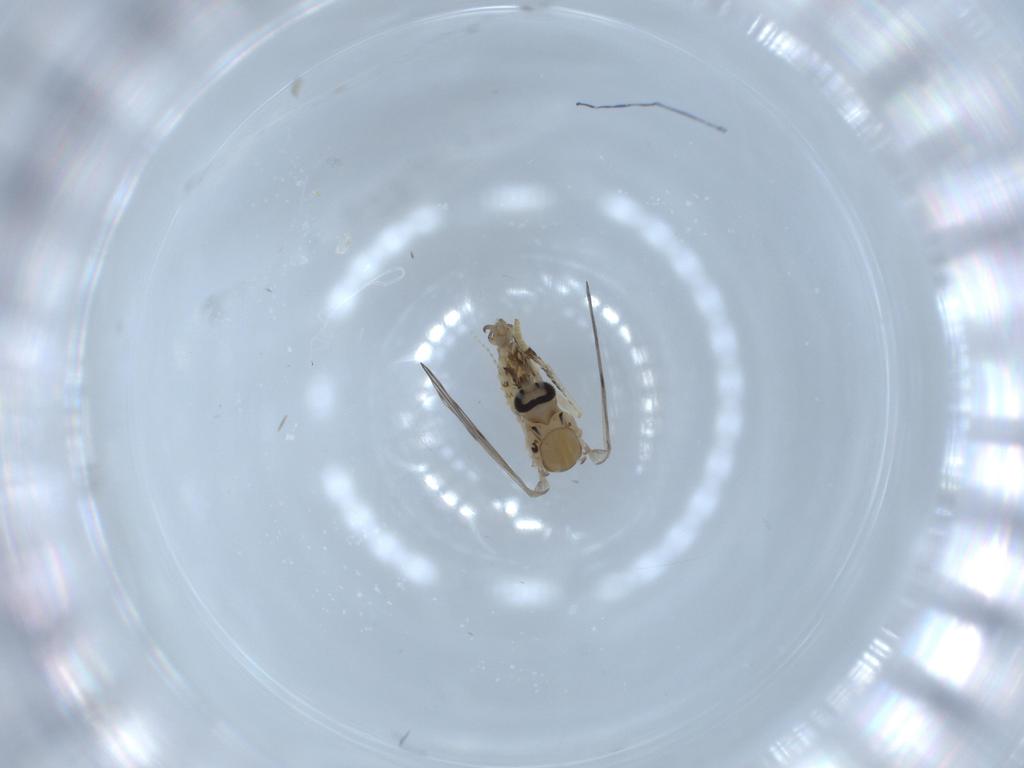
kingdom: Animalia
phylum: Arthropoda
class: Insecta
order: Diptera
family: Psychodidae
